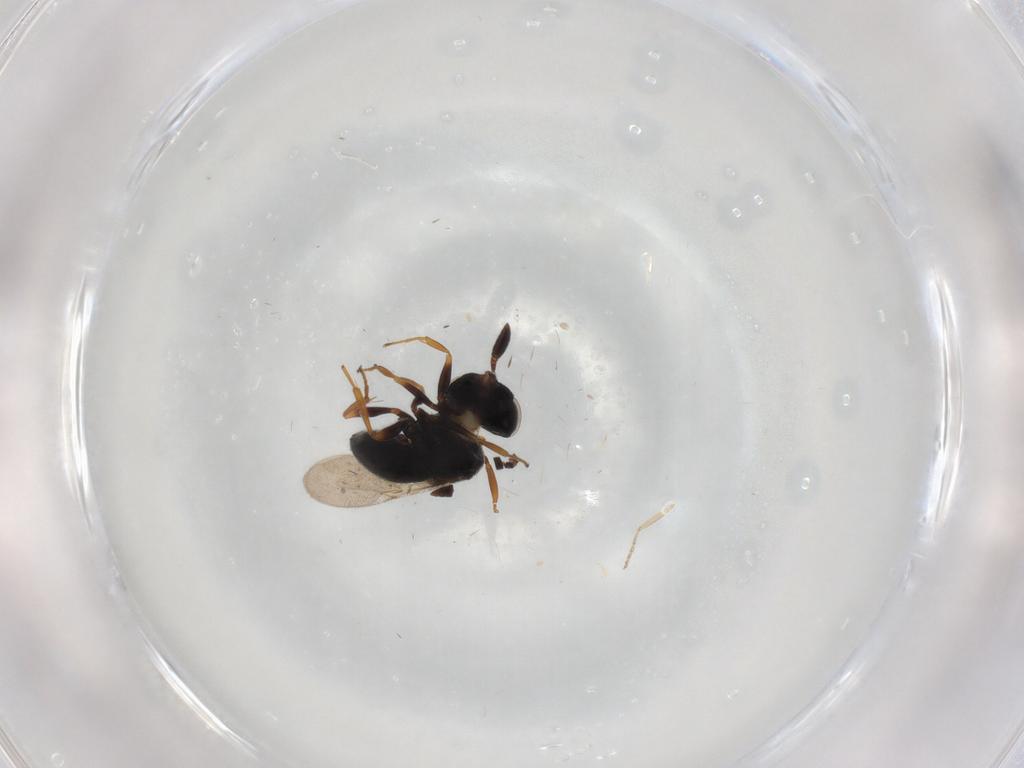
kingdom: Animalia
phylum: Arthropoda
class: Insecta
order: Hymenoptera
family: Scelionidae
